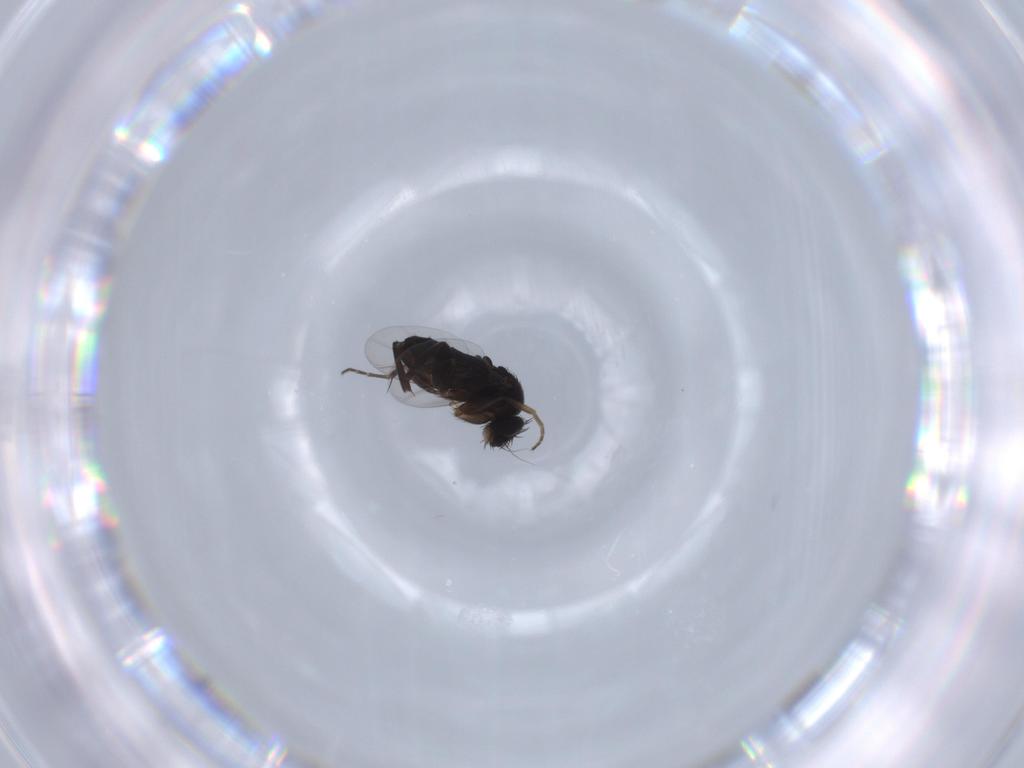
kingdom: Animalia
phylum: Arthropoda
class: Insecta
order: Diptera
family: Phoridae
